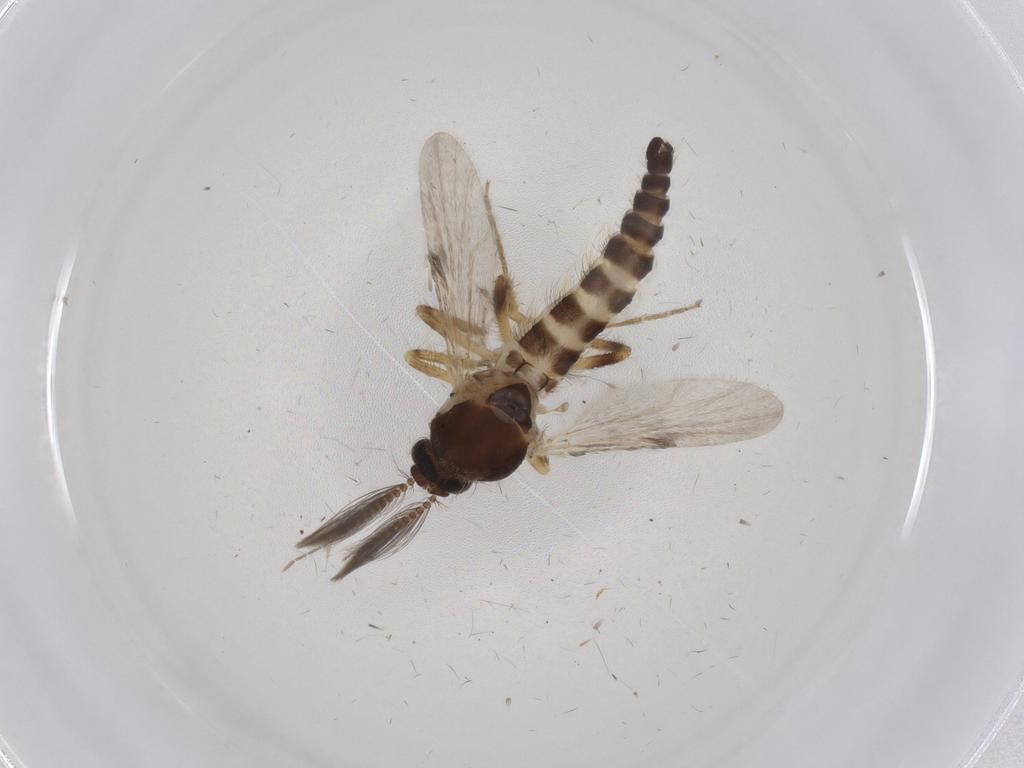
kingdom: Animalia
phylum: Arthropoda
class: Insecta
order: Diptera
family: Ceratopogonidae
